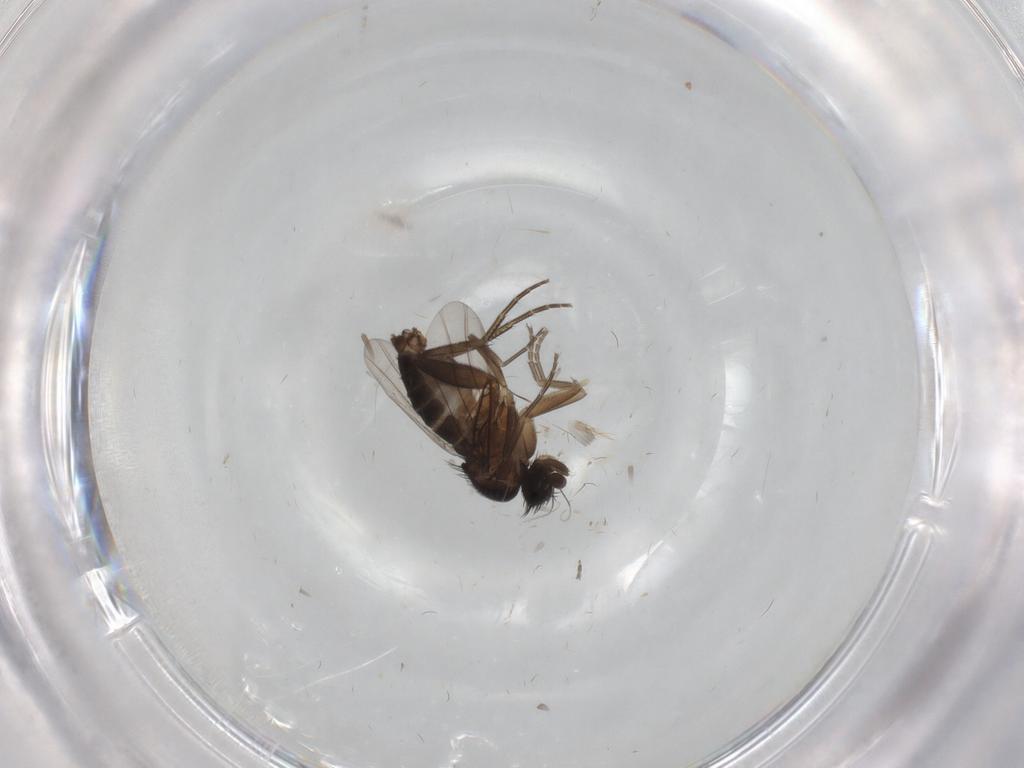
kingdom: Animalia
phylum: Arthropoda
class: Insecta
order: Diptera
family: Phoridae
